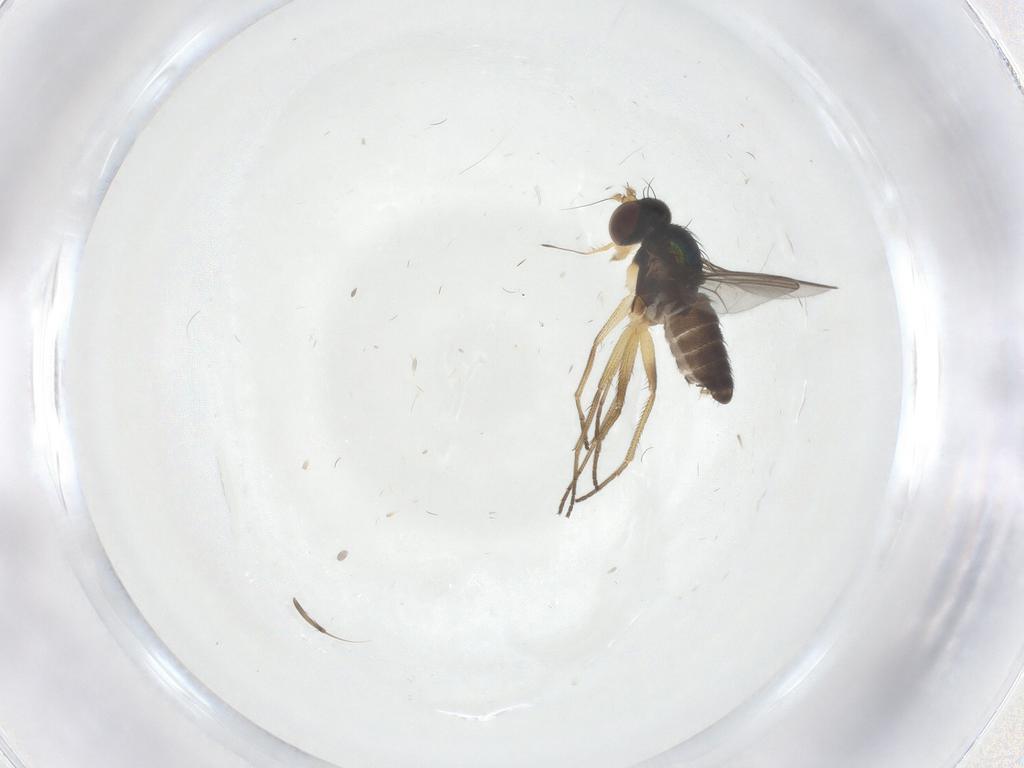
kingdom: Animalia
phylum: Arthropoda
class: Insecta
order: Diptera
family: Dolichopodidae
